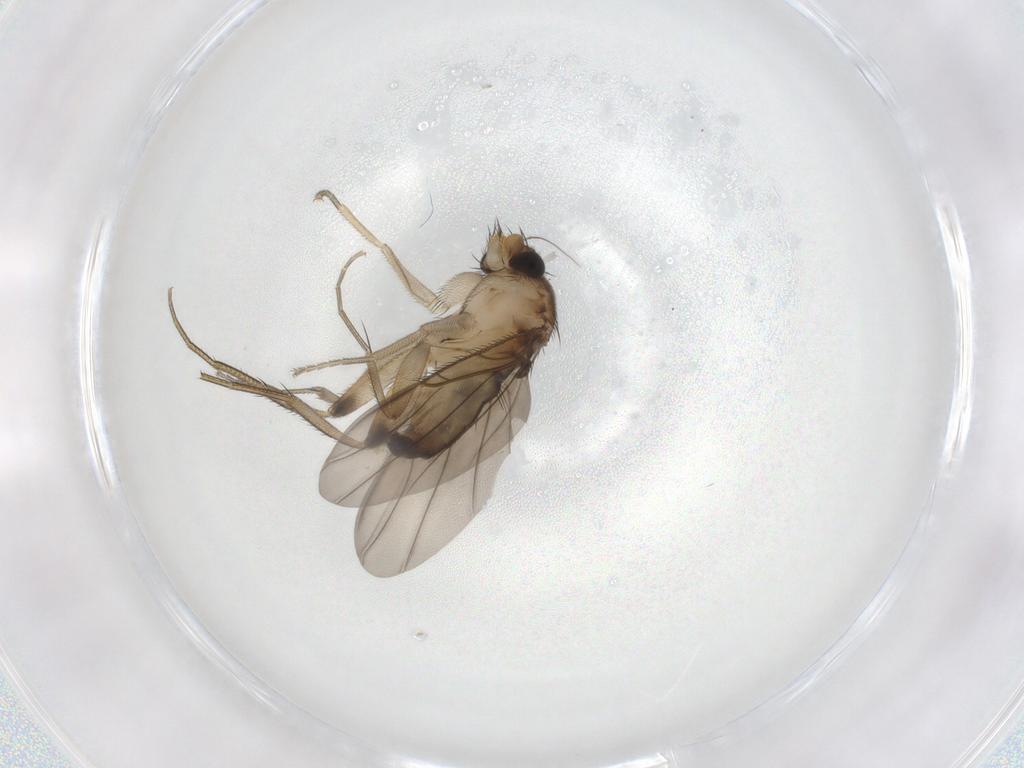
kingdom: Animalia
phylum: Arthropoda
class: Insecta
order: Diptera
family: Phoridae
